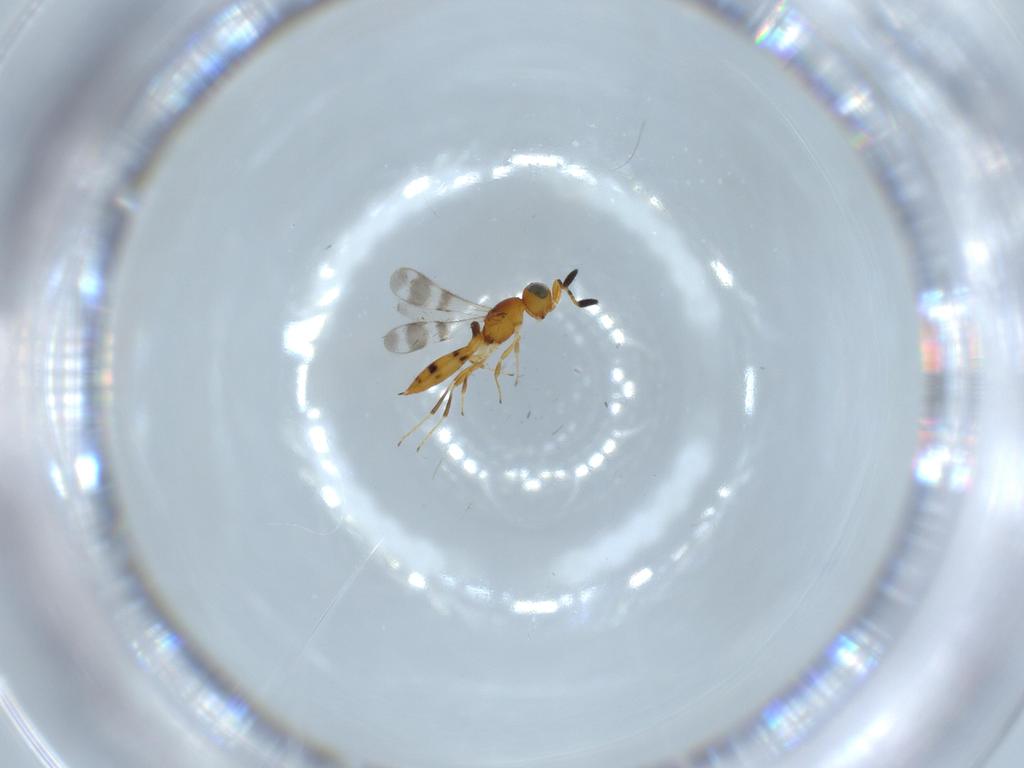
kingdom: Animalia
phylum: Arthropoda
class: Insecta
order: Hymenoptera
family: Scelionidae
